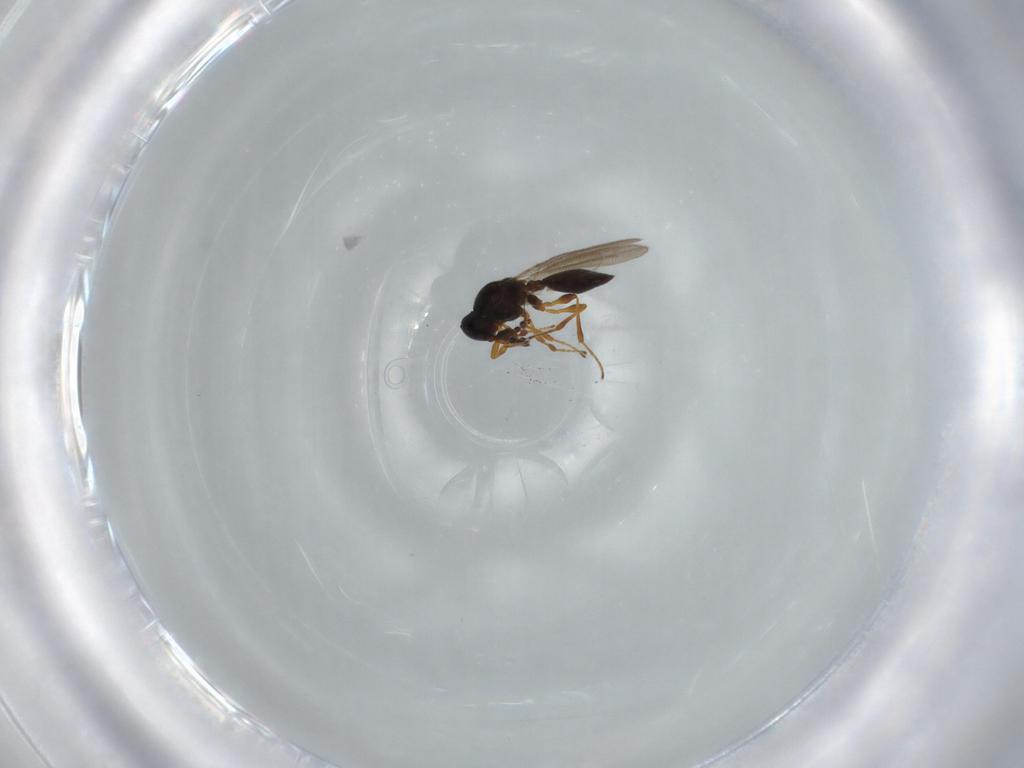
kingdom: Animalia
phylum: Arthropoda
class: Insecta
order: Hymenoptera
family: Platygastridae
